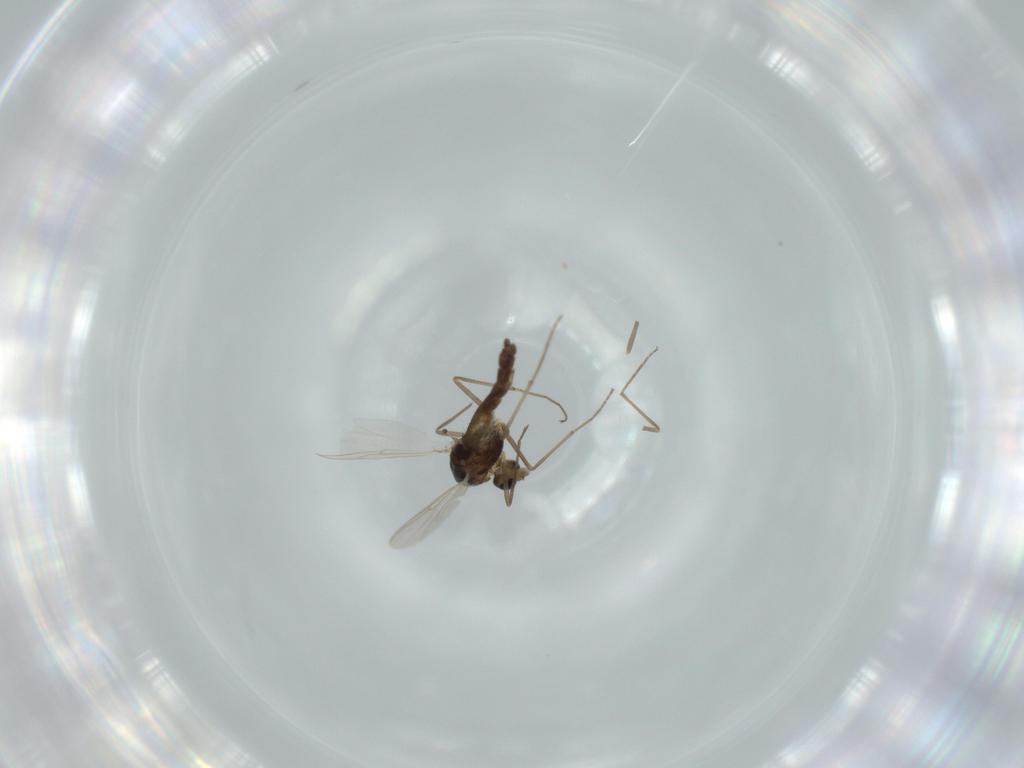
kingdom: Animalia
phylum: Arthropoda
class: Insecta
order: Diptera
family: Chironomidae
